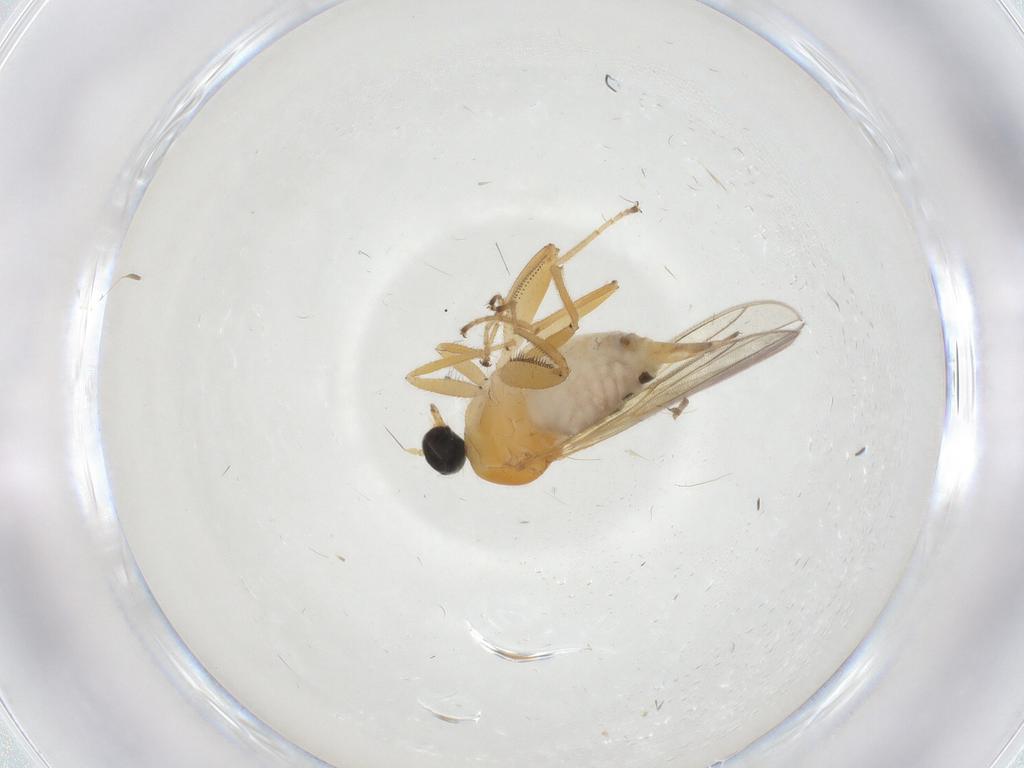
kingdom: Animalia
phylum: Arthropoda
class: Insecta
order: Diptera
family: Hybotidae
